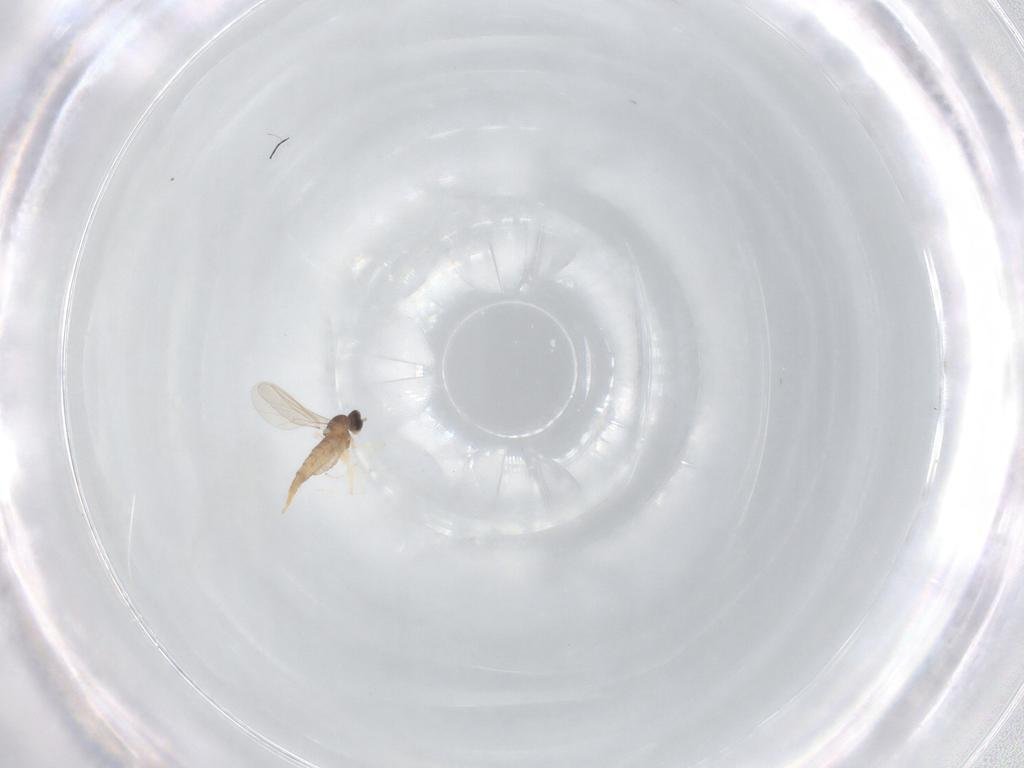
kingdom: Animalia
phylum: Arthropoda
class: Insecta
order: Diptera
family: Cecidomyiidae
